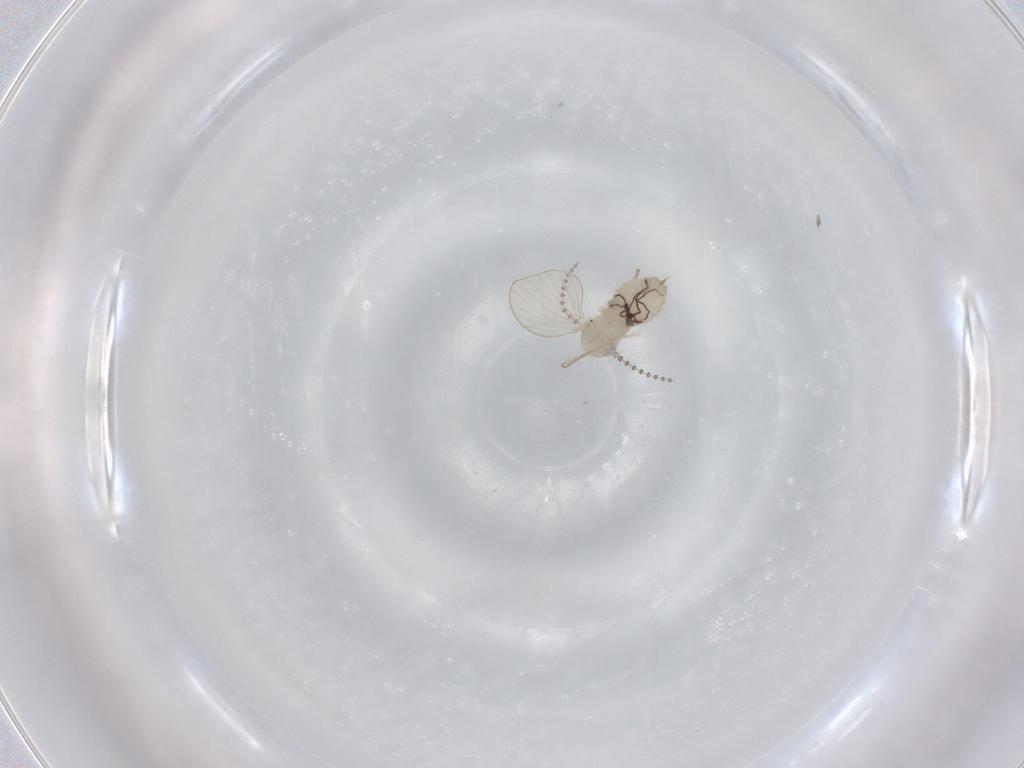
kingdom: Animalia
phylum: Arthropoda
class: Insecta
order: Diptera
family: Psychodidae
